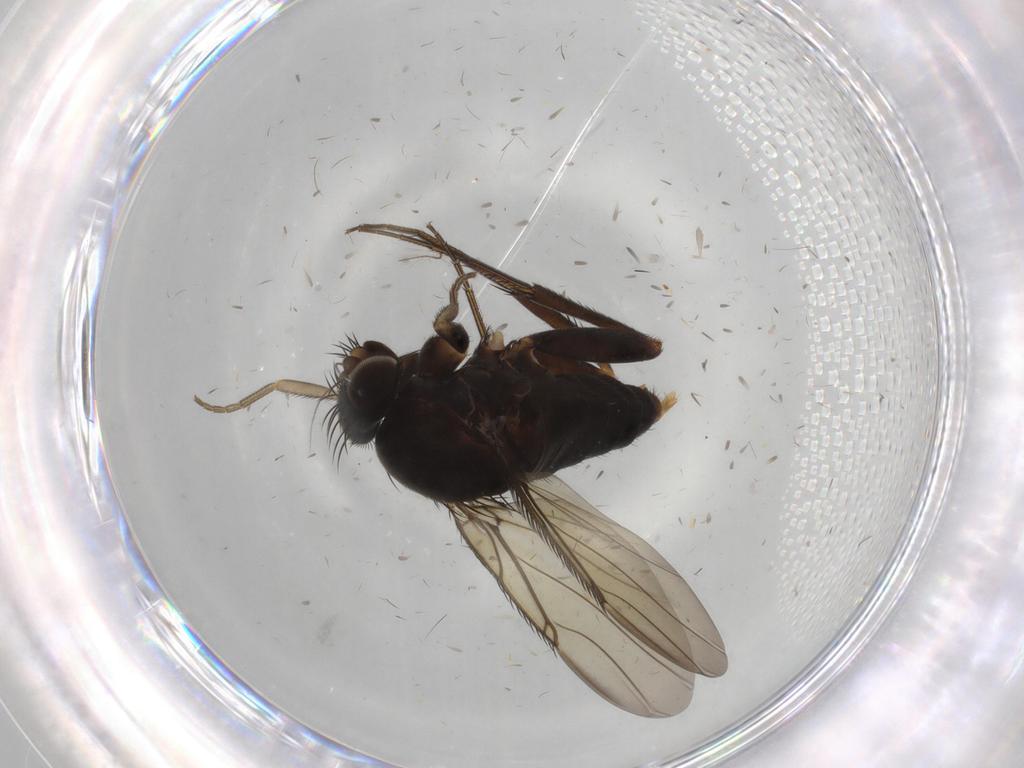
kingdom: Animalia
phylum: Arthropoda
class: Insecta
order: Diptera
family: Phoridae
